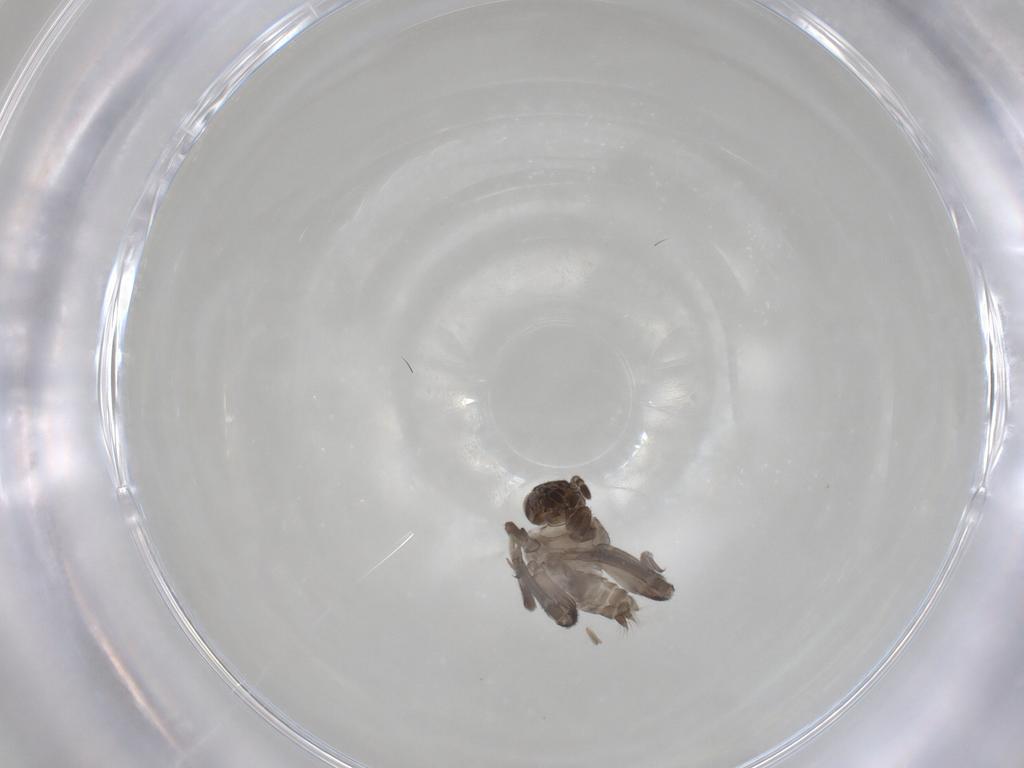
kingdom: Animalia
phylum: Arthropoda
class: Insecta
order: Orthoptera
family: Ripipterygidae
